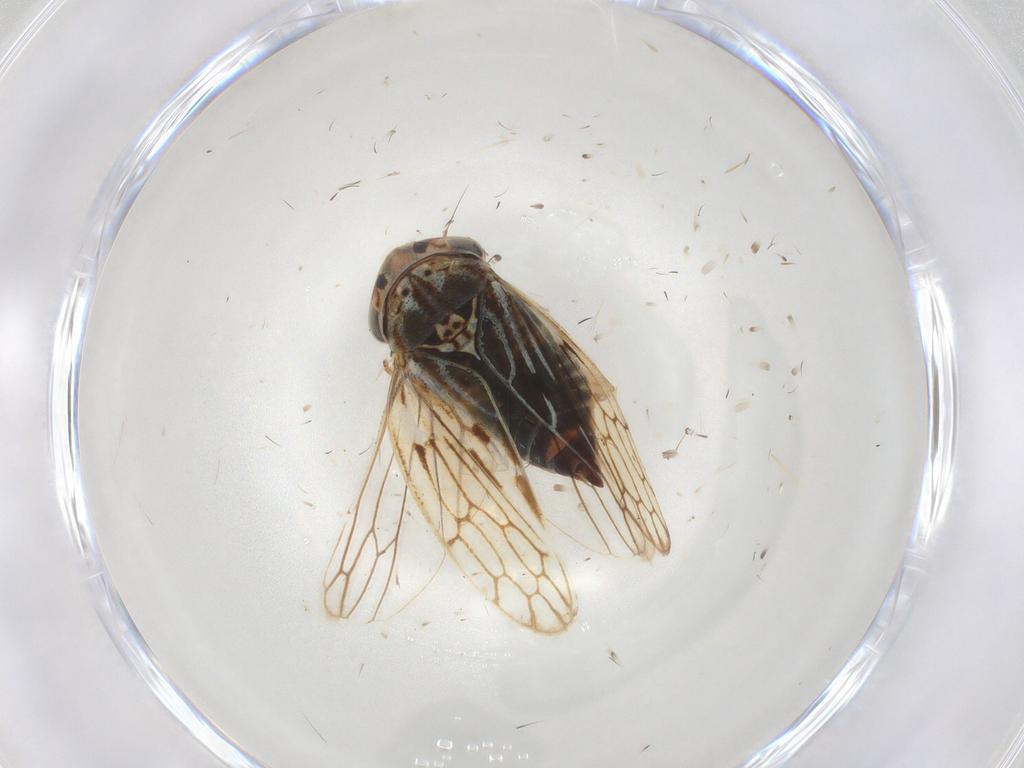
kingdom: Animalia
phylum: Arthropoda
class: Insecta
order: Hemiptera
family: Cicadellidae
